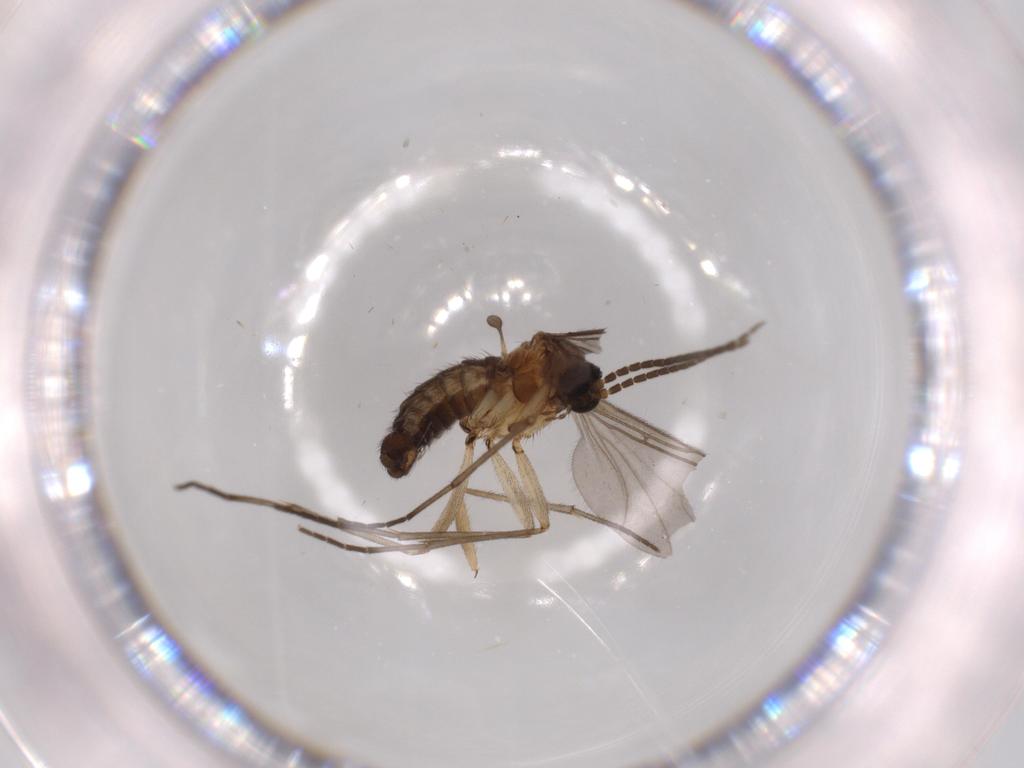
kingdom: Animalia
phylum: Arthropoda
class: Insecta
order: Diptera
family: Sciaridae
